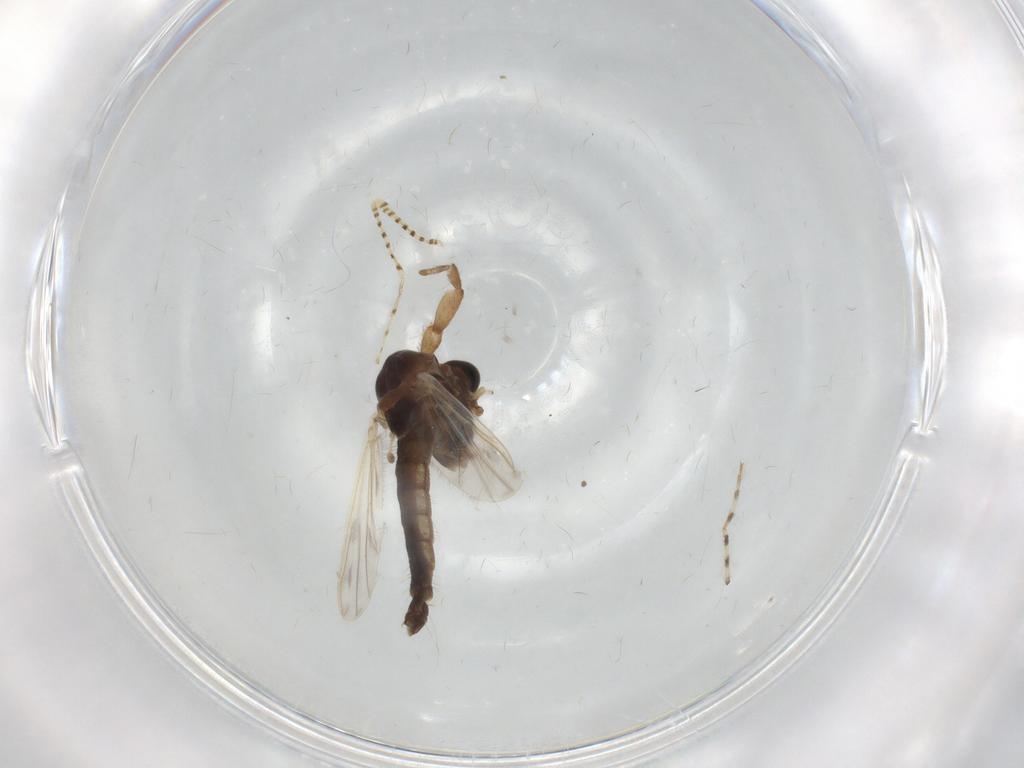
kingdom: Animalia
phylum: Arthropoda
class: Insecta
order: Diptera
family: Chironomidae
